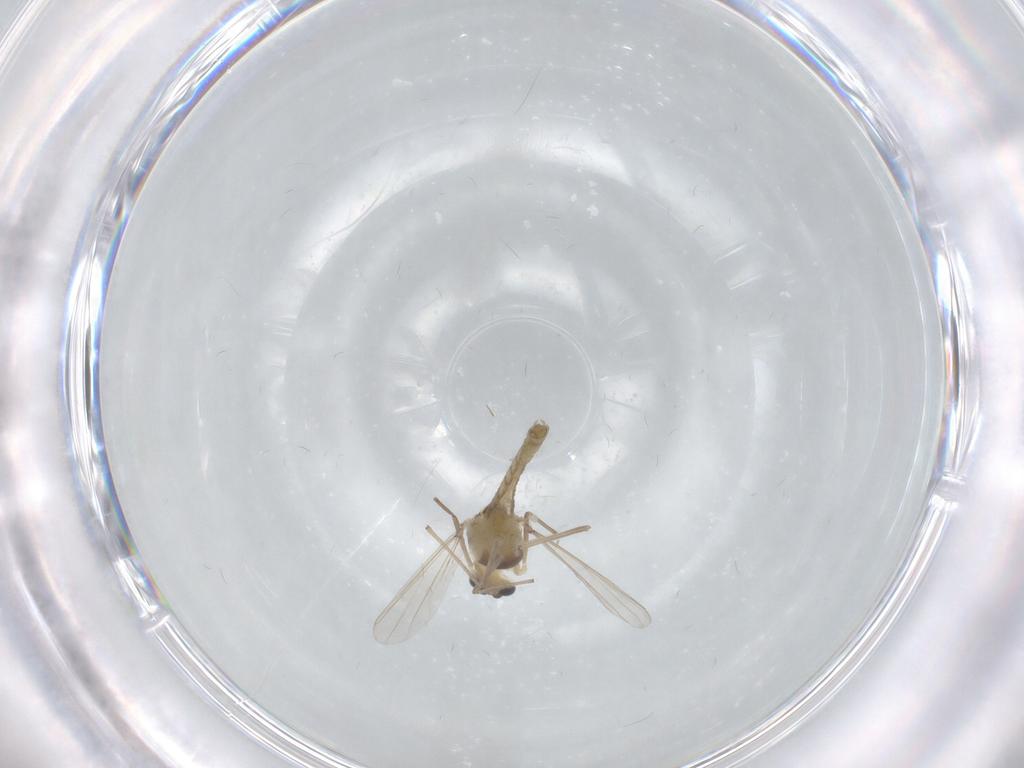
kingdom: Animalia
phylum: Arthropoda
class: Insecta
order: Diptera
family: Chironomidae
